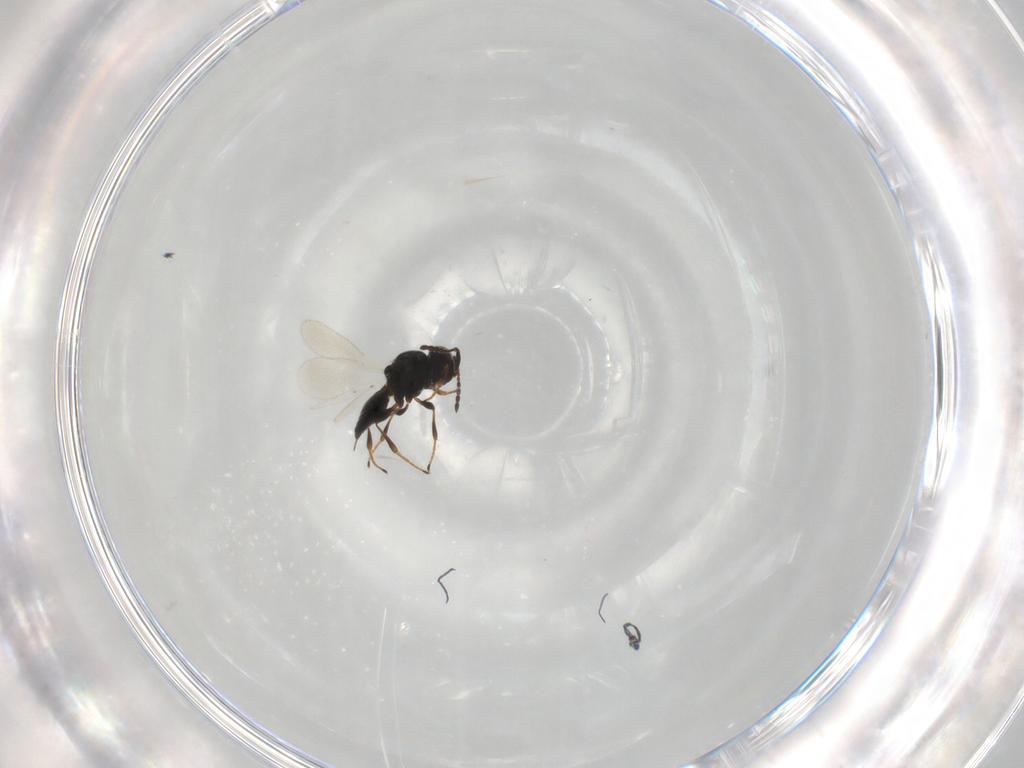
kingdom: Animalia
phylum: Arthropoda
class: Insecta
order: Hymenoptera
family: Platygastridae
